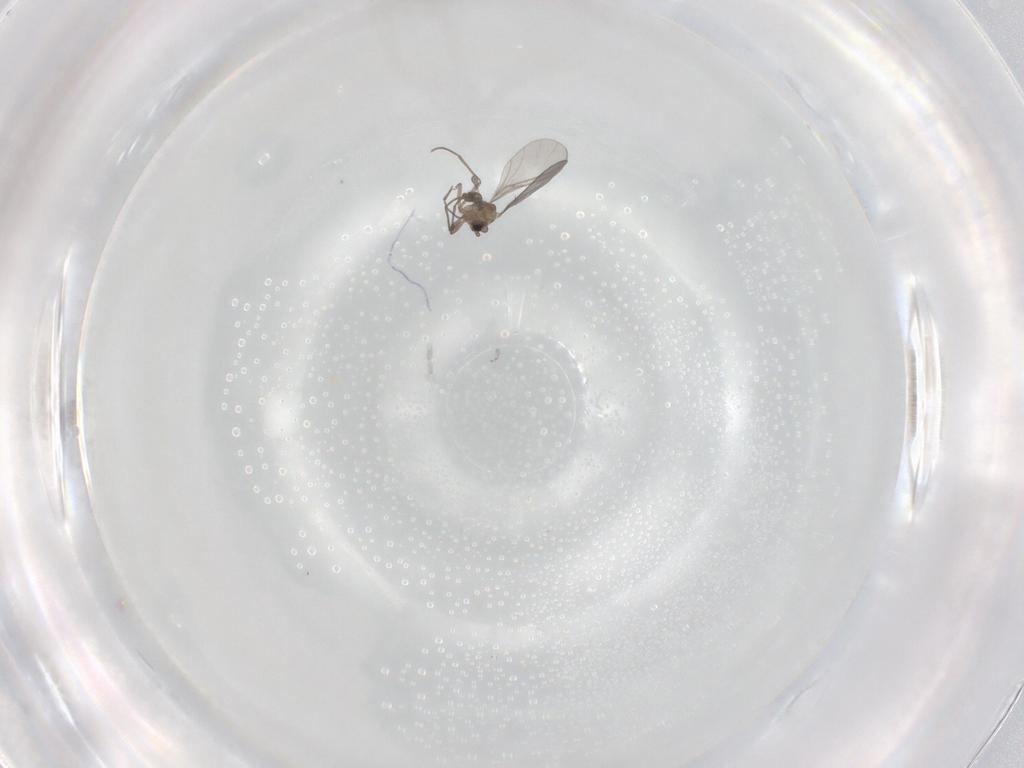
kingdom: Animalia
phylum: Arthropoda
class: Insecta
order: Diptera
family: Sciaridae
